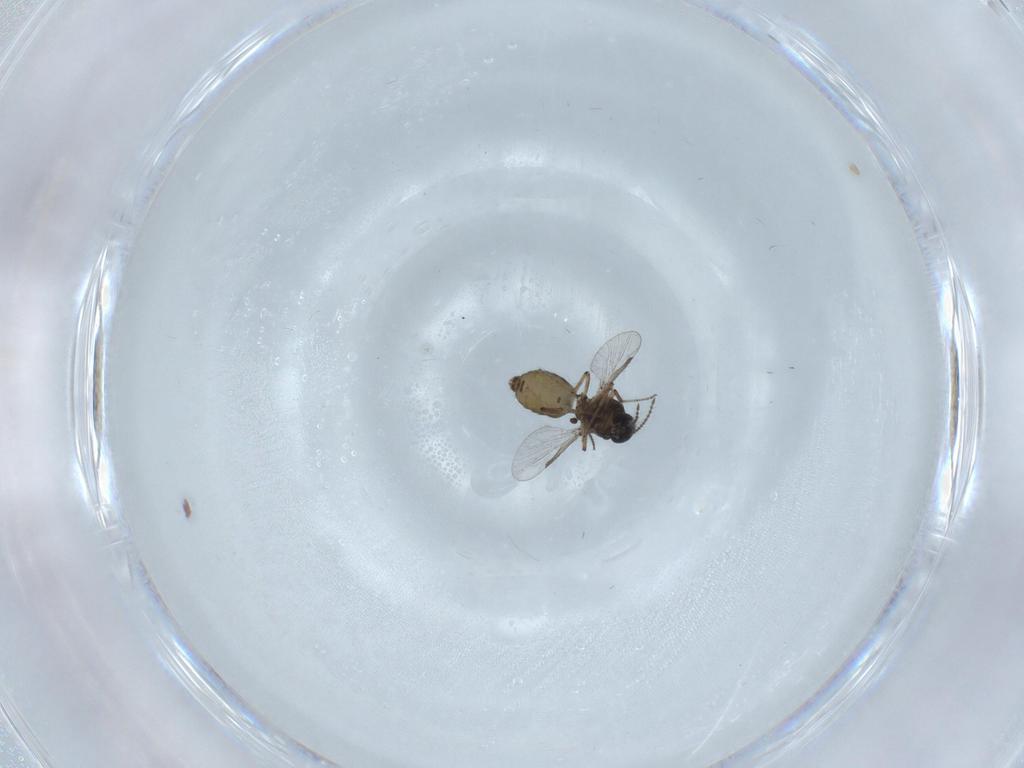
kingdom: Animalia
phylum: Arthropoda
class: Insecta
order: Diptera
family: Ceratopogonidae
